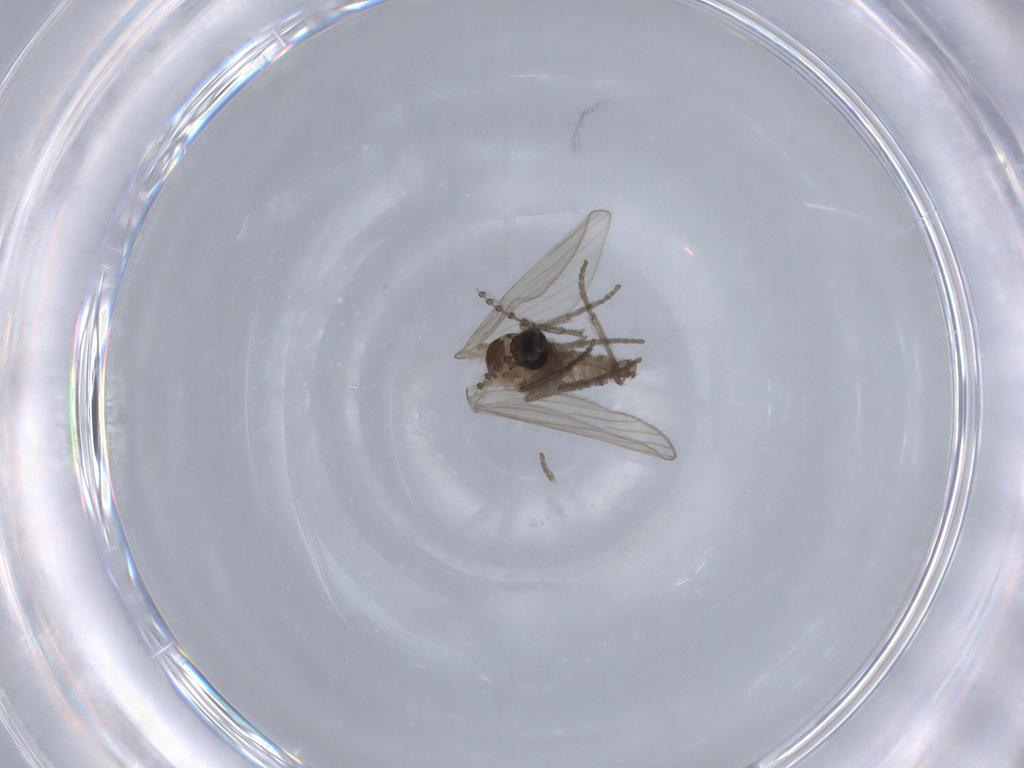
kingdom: Animalia
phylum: Arthropoda
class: Insecta
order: Diptera
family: Ceratopogonidae
